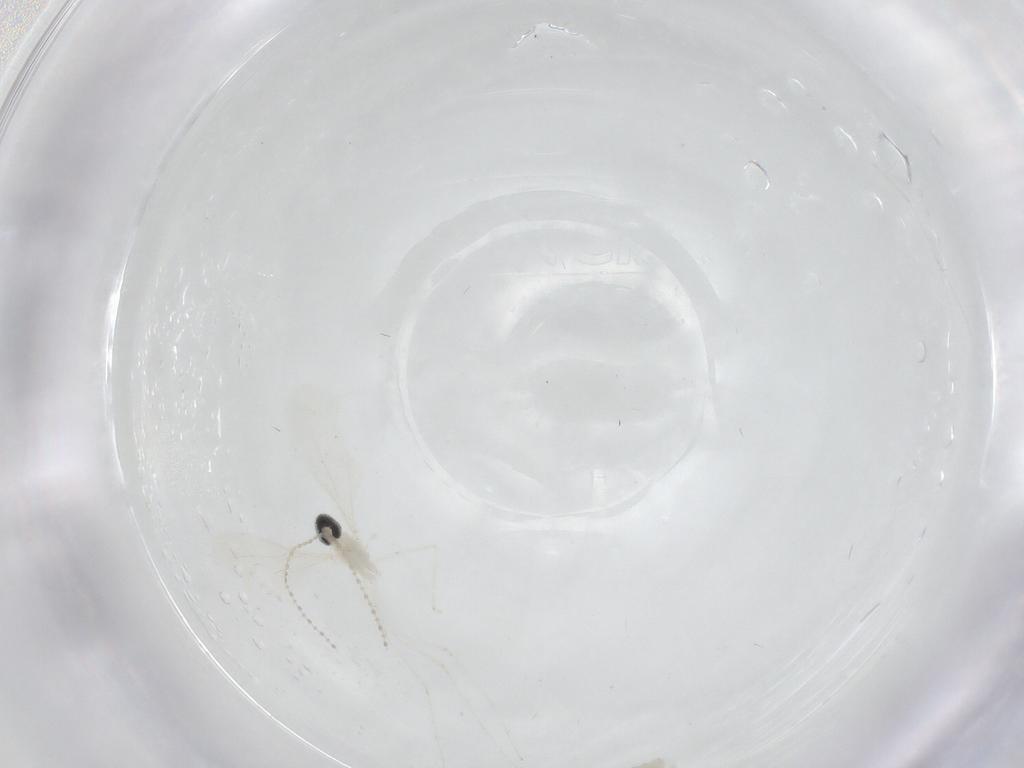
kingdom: Animalia
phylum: Arthropoda
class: Insecta
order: Diptera
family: Cecidomyiidae
